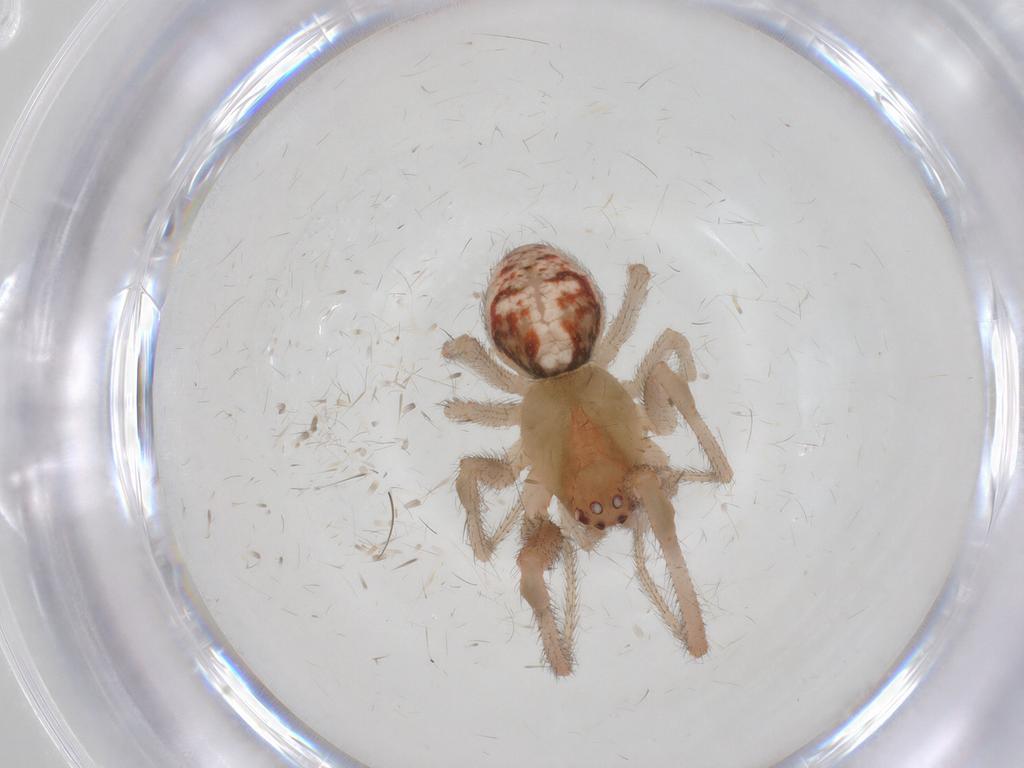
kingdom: Animalia
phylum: Arthropoda
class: Arachnida
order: Araneae
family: Theridiidae
